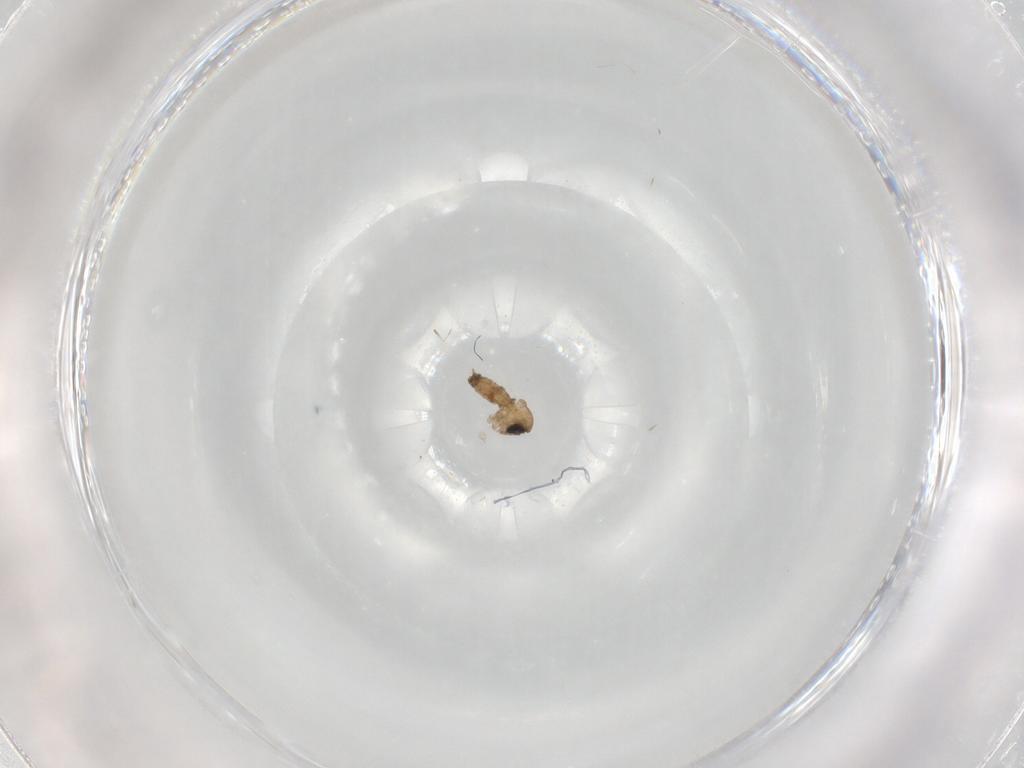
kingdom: Animalia
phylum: Arthropoda
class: Insecta
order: Diptera
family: Psychodidae
